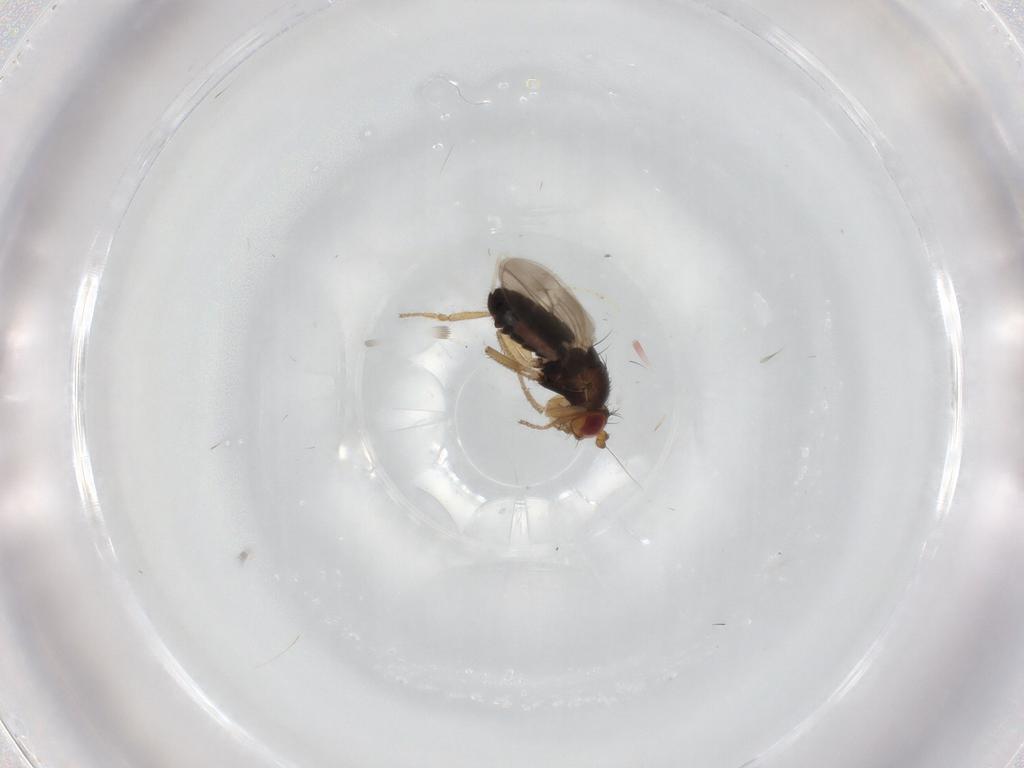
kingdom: Animalia
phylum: Arthropoda
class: Insecta
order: Diptera
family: Sphaeroceridae
